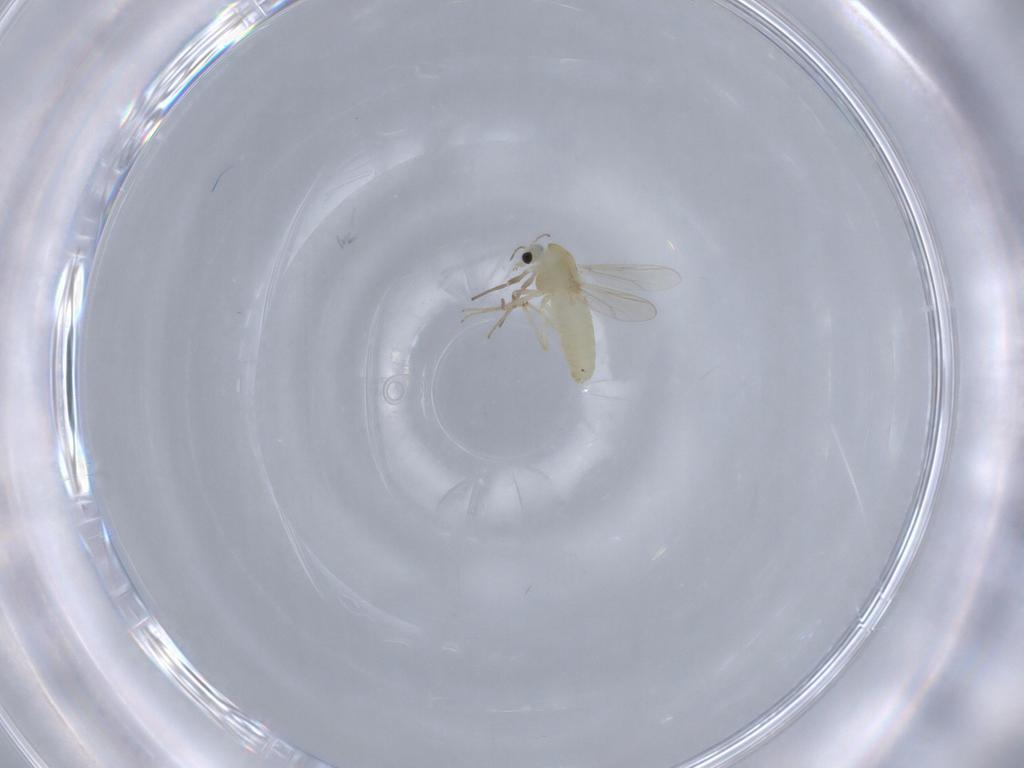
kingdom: Animalia
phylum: Arthropoda
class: Insecta
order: Diptera
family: Chironomidae
